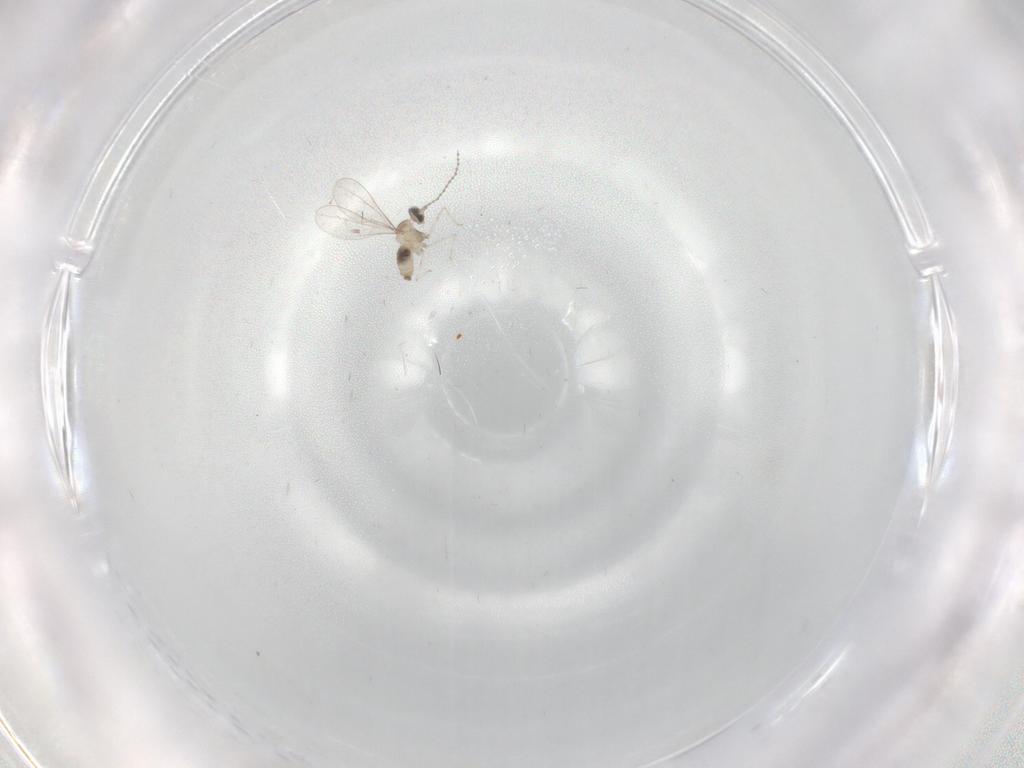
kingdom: Animalia
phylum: Arthropoda
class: Insecta
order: Diptera
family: Cecidomyiidae
